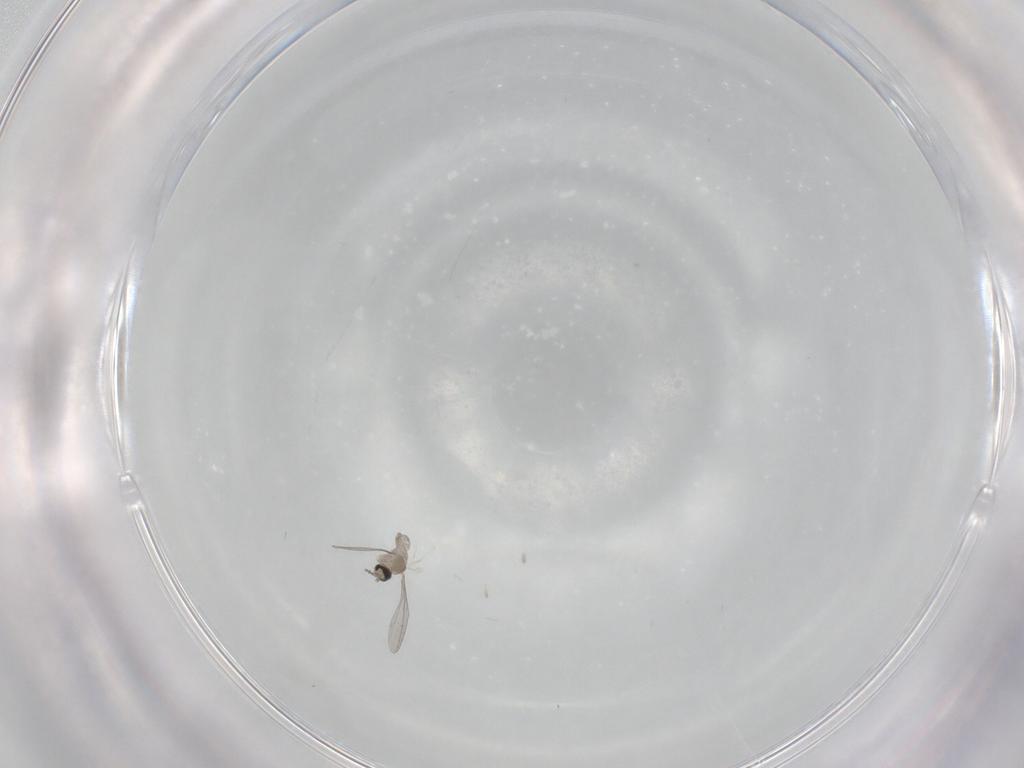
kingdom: Animalia
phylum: Arthropoda
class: Insecta
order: Diptera
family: Cecidomyiidae
